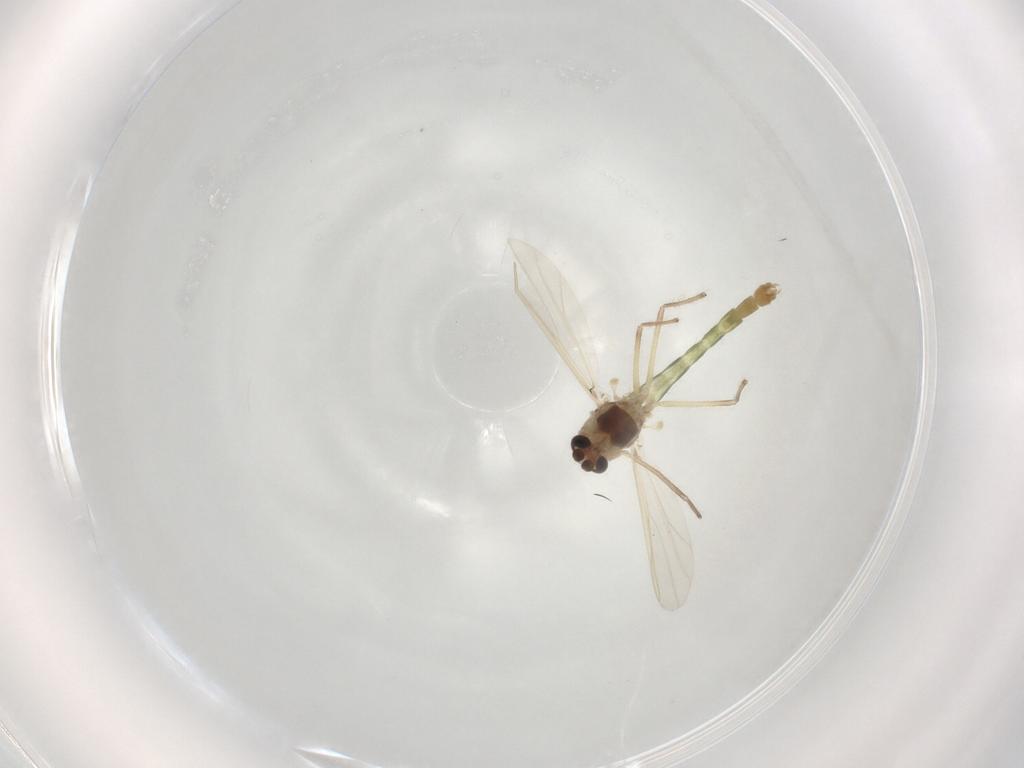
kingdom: Animalia
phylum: Arthropoda
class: Insecta
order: Diptera
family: Chironomidae
